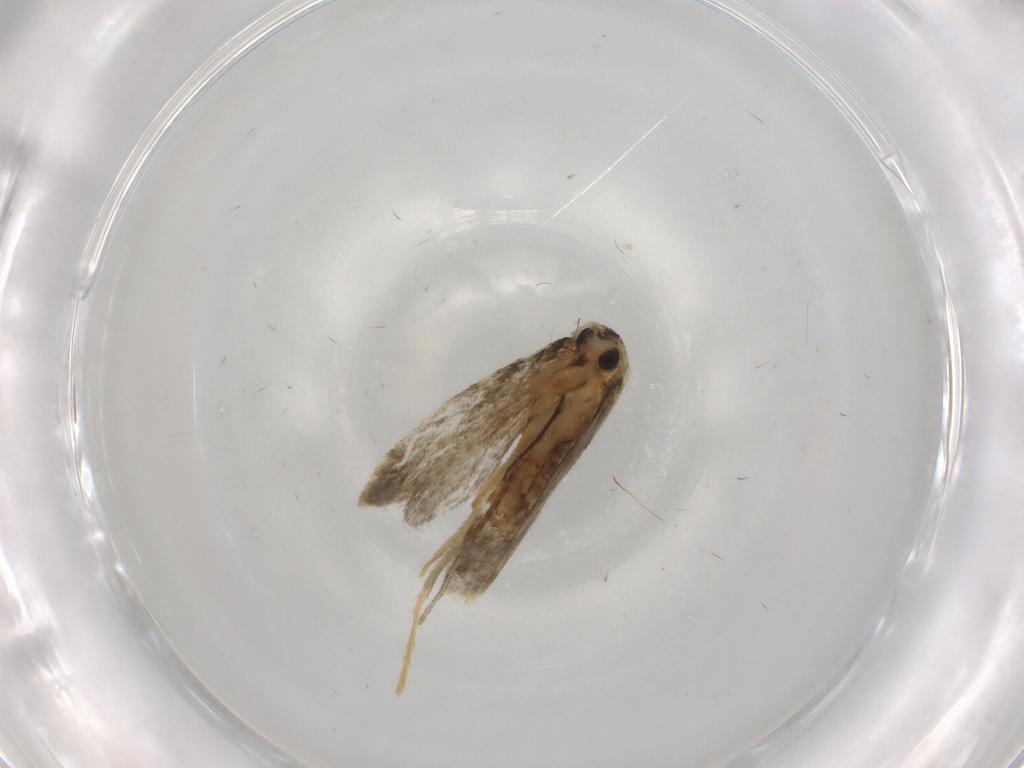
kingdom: Animalia
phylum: Arthropoda
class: Insecta
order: Lepidoptera
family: Psychidae
